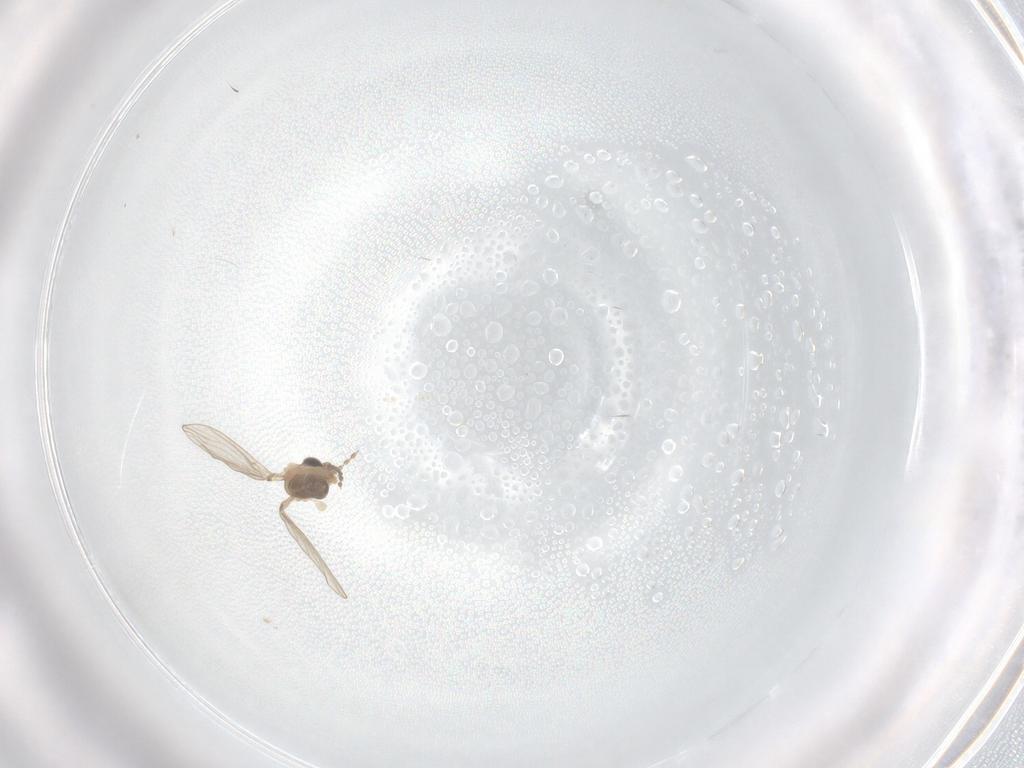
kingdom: Animalia
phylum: Arthropoda
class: Insecta
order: Diptera
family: Psychodidae
